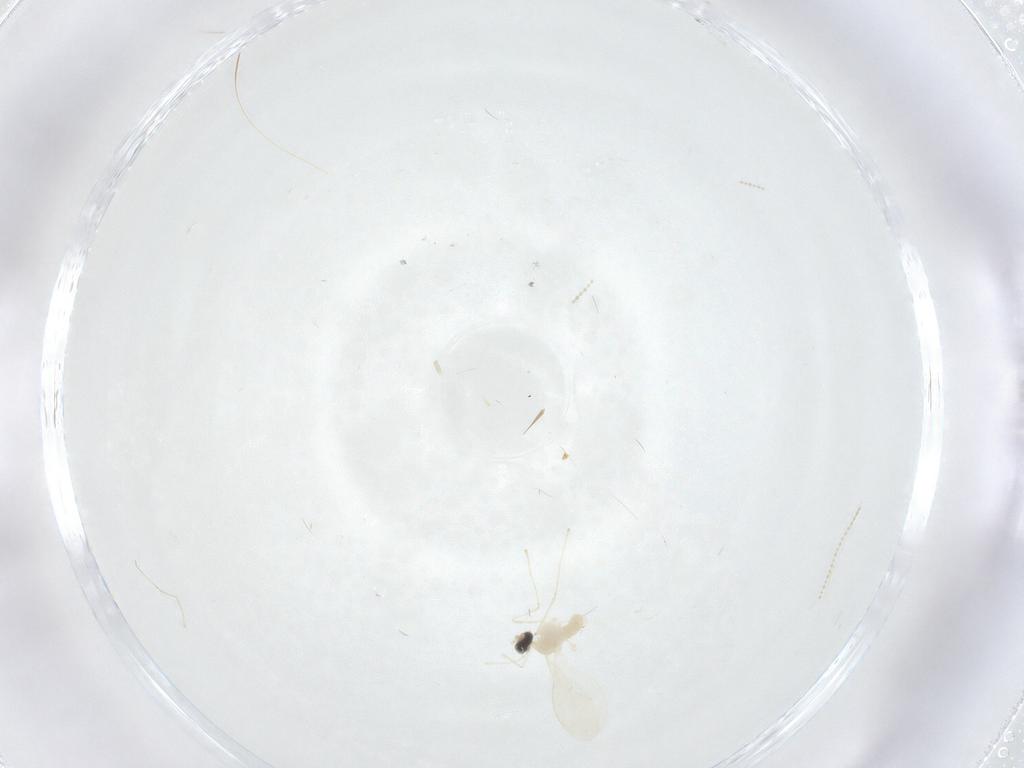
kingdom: Animalia
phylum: Arthropoda
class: Insecta
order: Diptera
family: Cecidomyiidae
